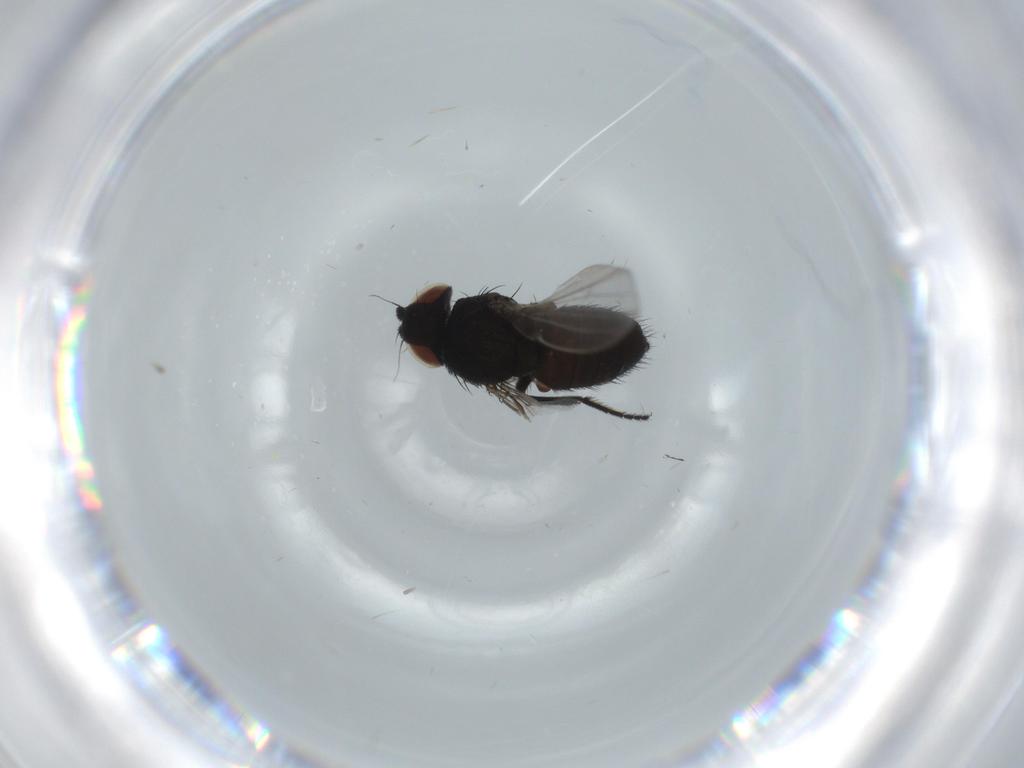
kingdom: Animalia
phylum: Arthropoda
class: Insecta
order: Diptera
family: Milichiidae
